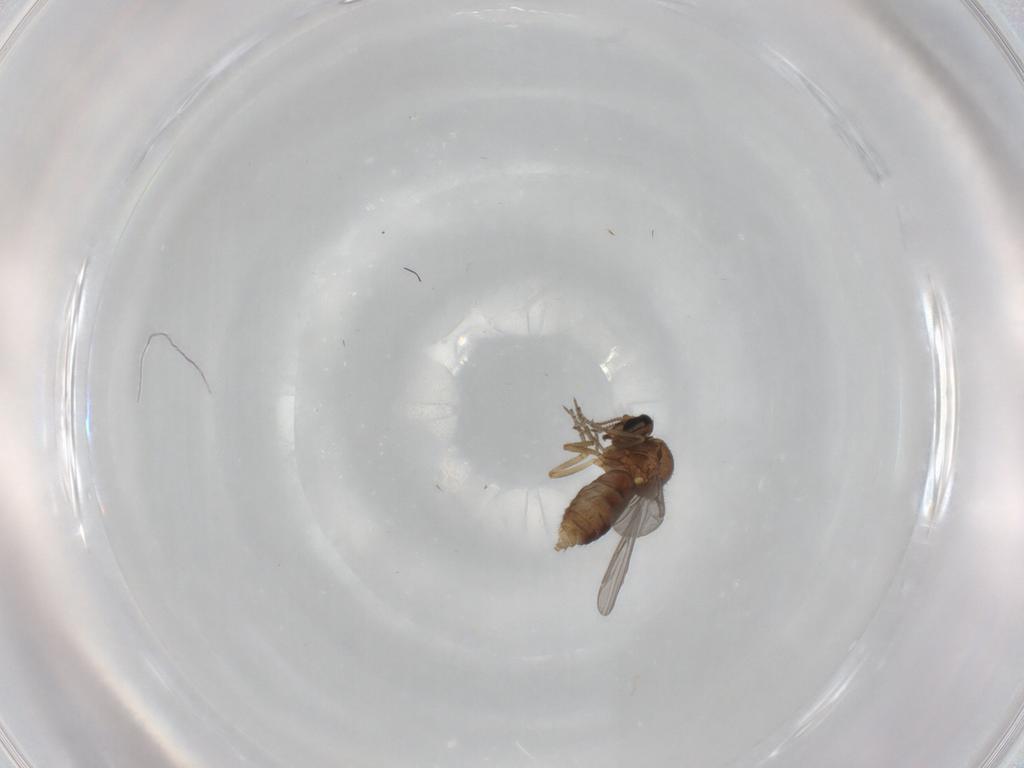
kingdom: Animalia
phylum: Arthropoda
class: Insecta
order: Diptera
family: Ceratopogonidae
